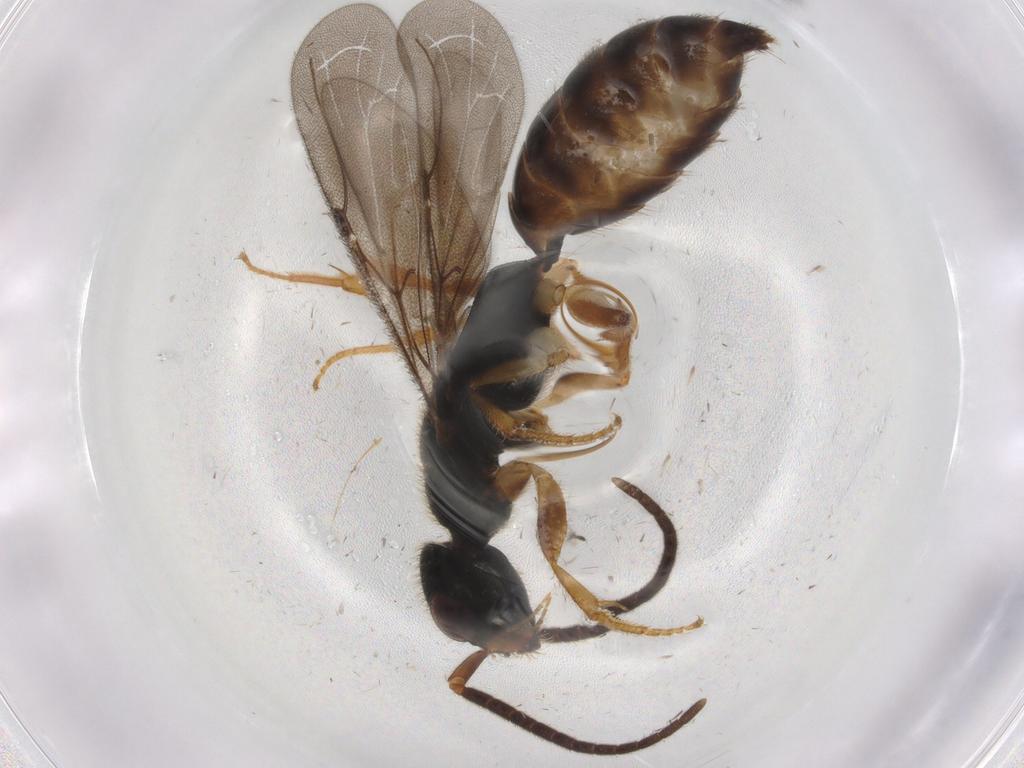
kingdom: Animalia
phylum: Arthropoda
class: Insecta
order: Hymenoptera
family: Bethylidae
